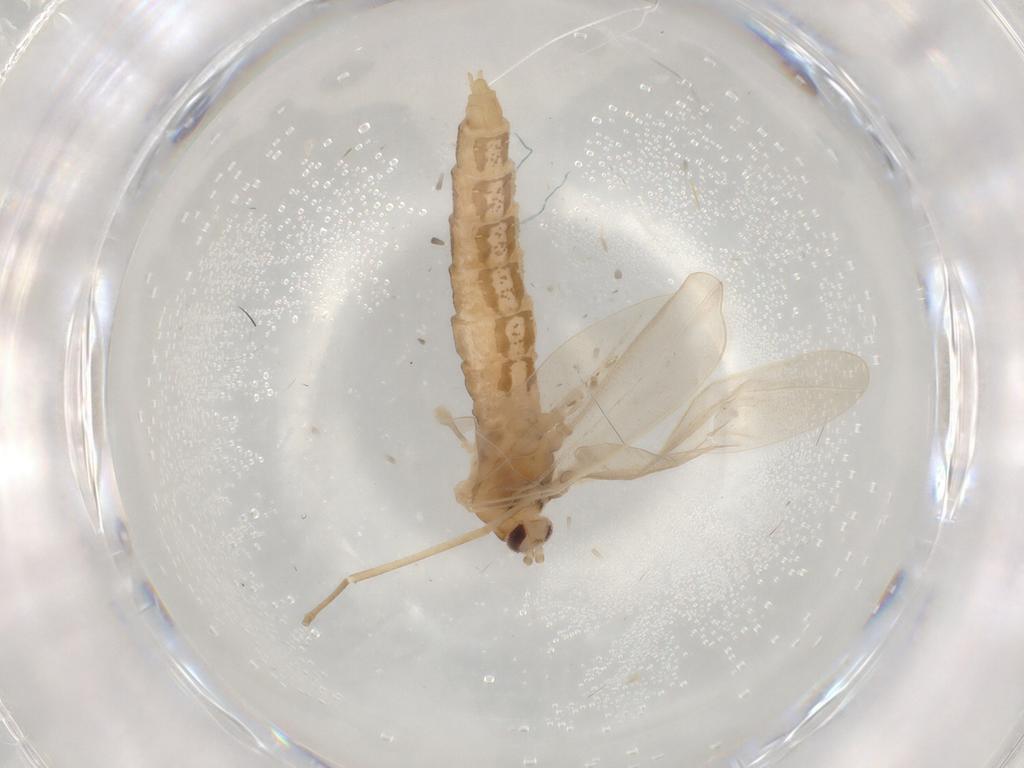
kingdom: Animalia
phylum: Arthropoda
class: Insecta
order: Diptera
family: Cecidomyiidae
